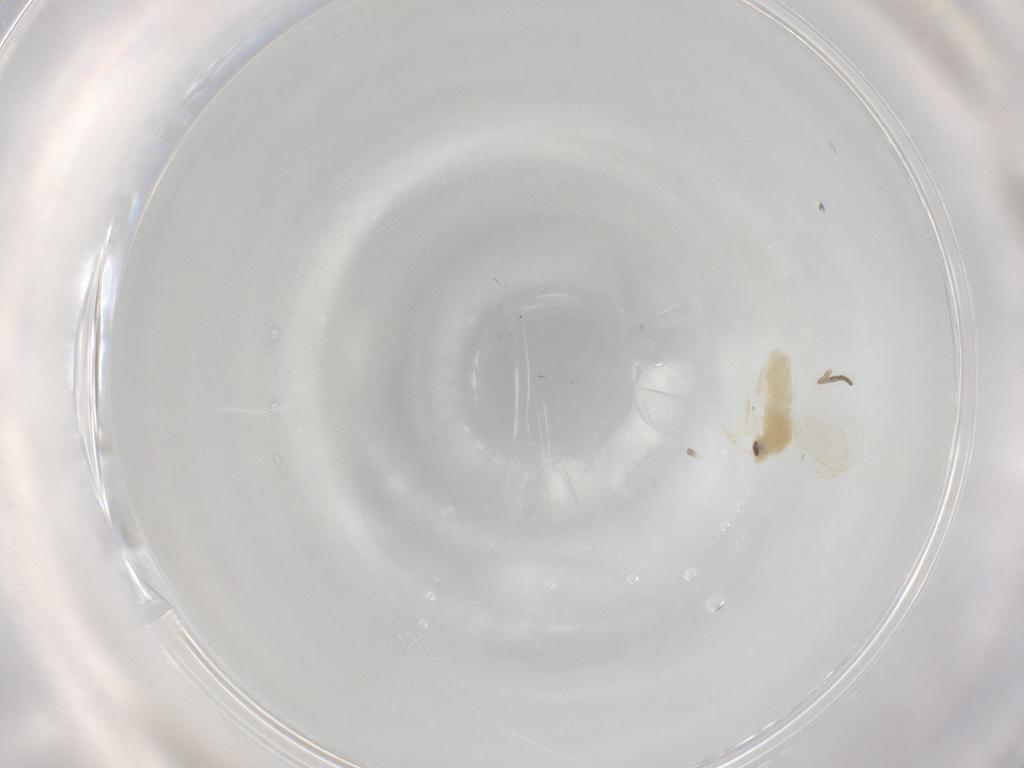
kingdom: Animalia
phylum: Arthropoda
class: Insecta
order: Diptera
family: Psychodidae
